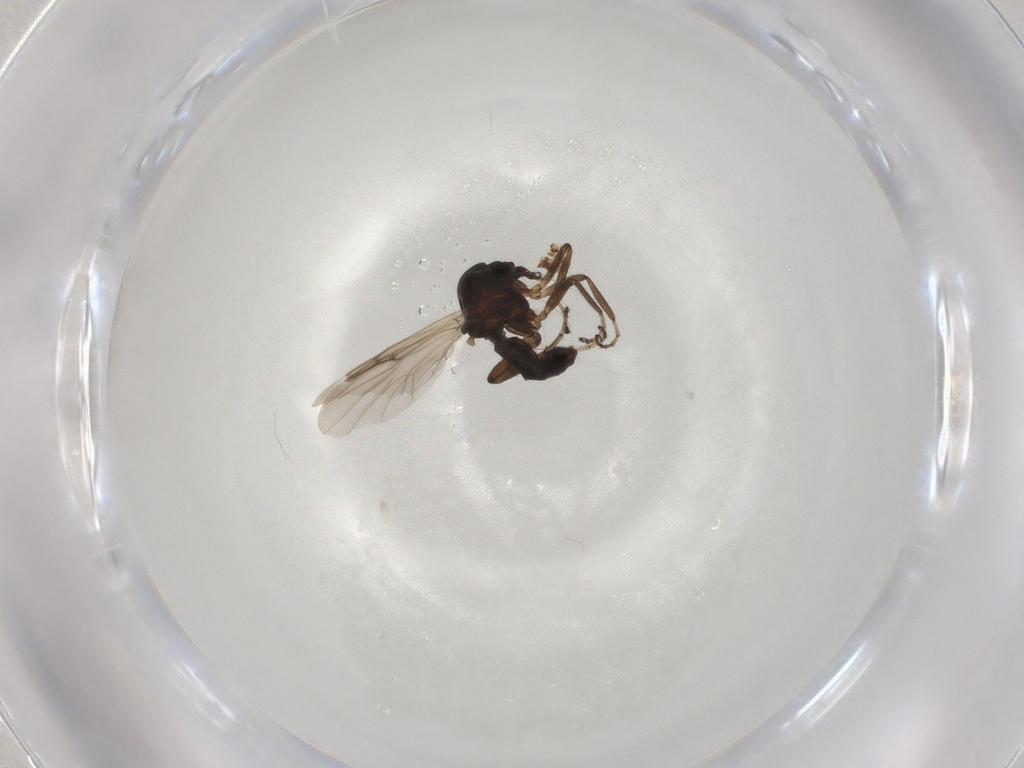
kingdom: Animalia
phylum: Arthropoda
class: Insecta
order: Diptera
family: Ceratopogonidae
